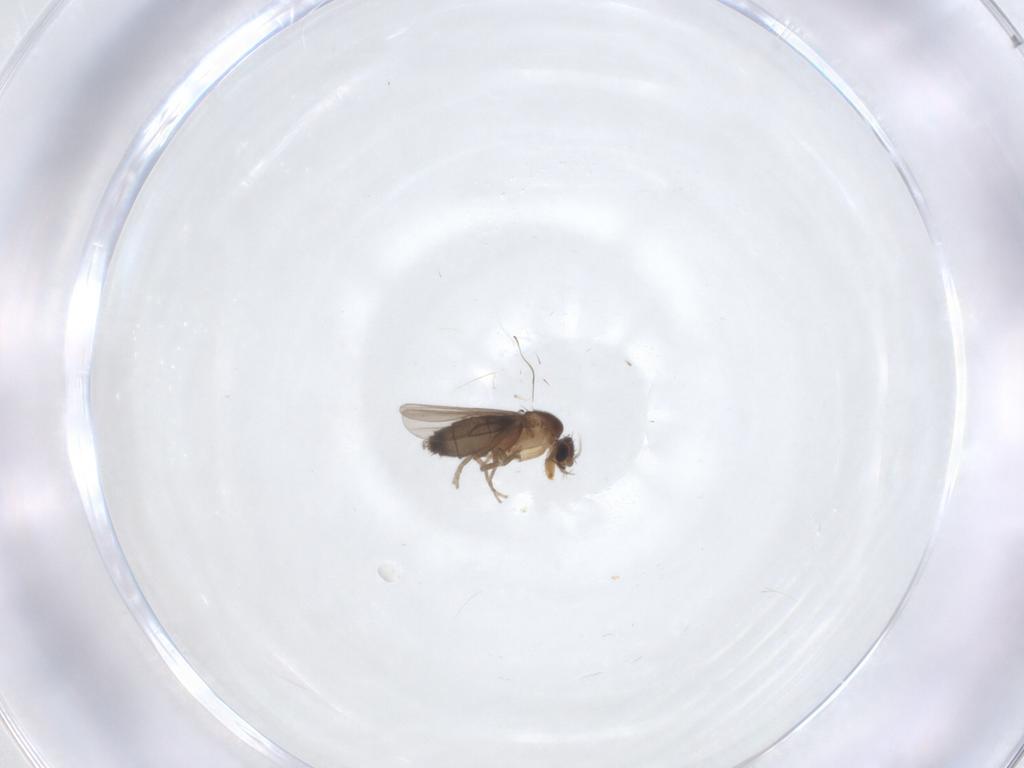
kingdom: Animalia
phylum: Arthropoda
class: Insecta
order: Diptera
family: Phoridae
